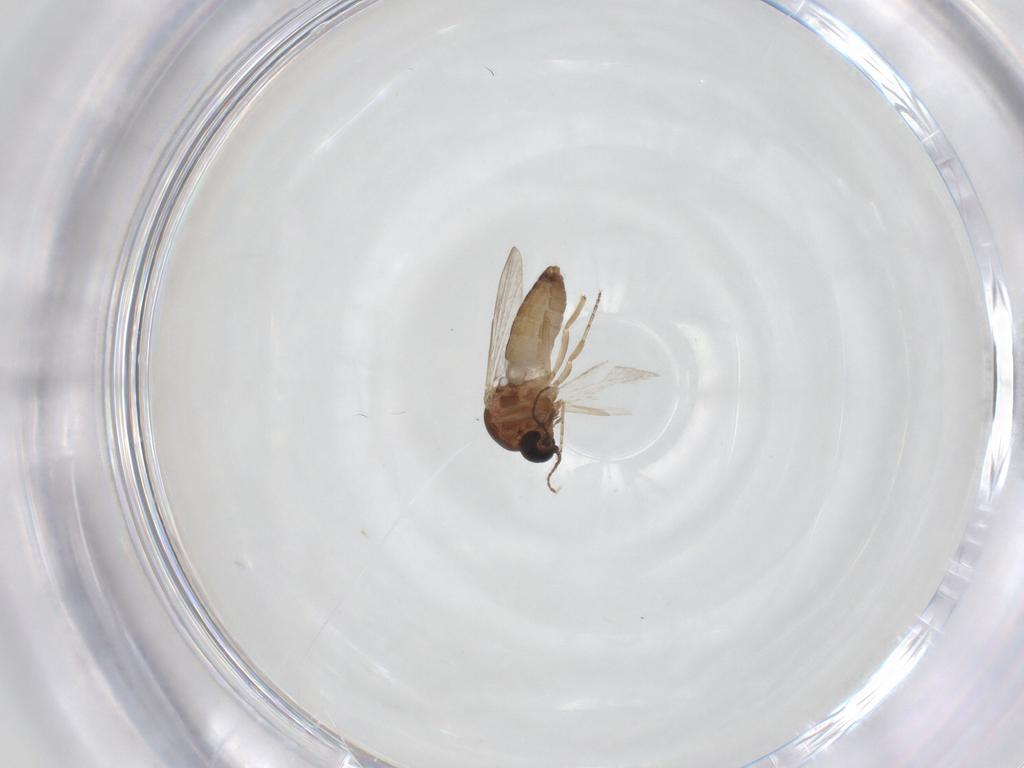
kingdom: Animalia
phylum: Arthropoda
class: Insecta
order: Diptera
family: Ceratopogonidae
